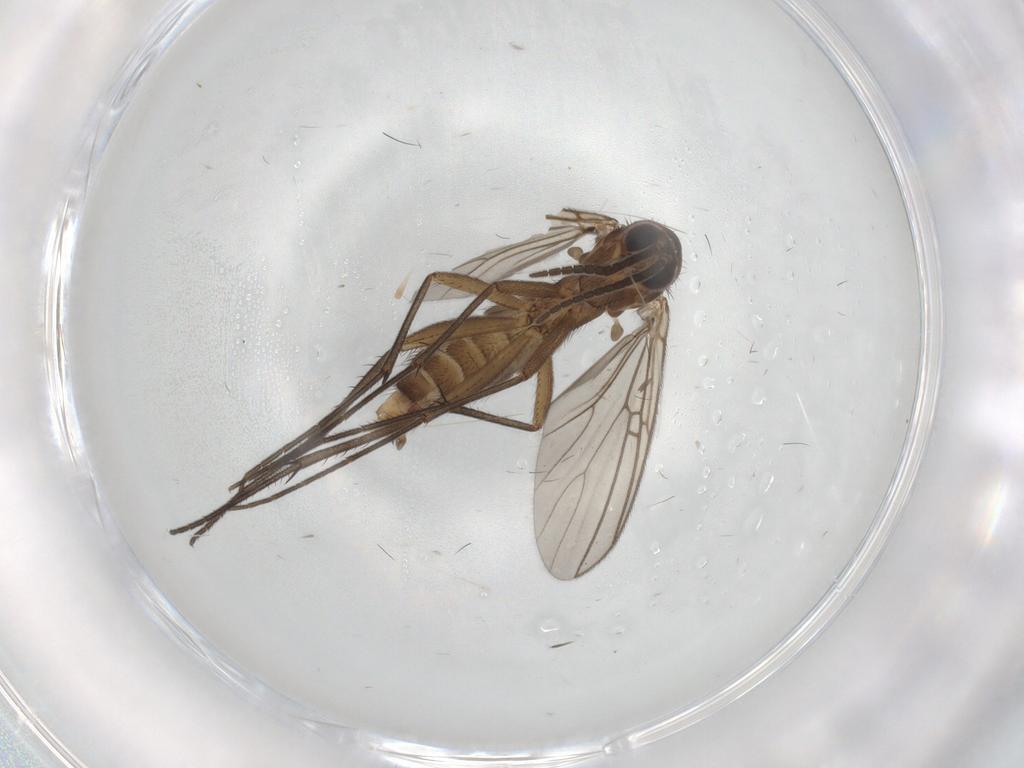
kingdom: Animalia
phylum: Arthropoda
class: Insecta
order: Diptera
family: Sciaridae
